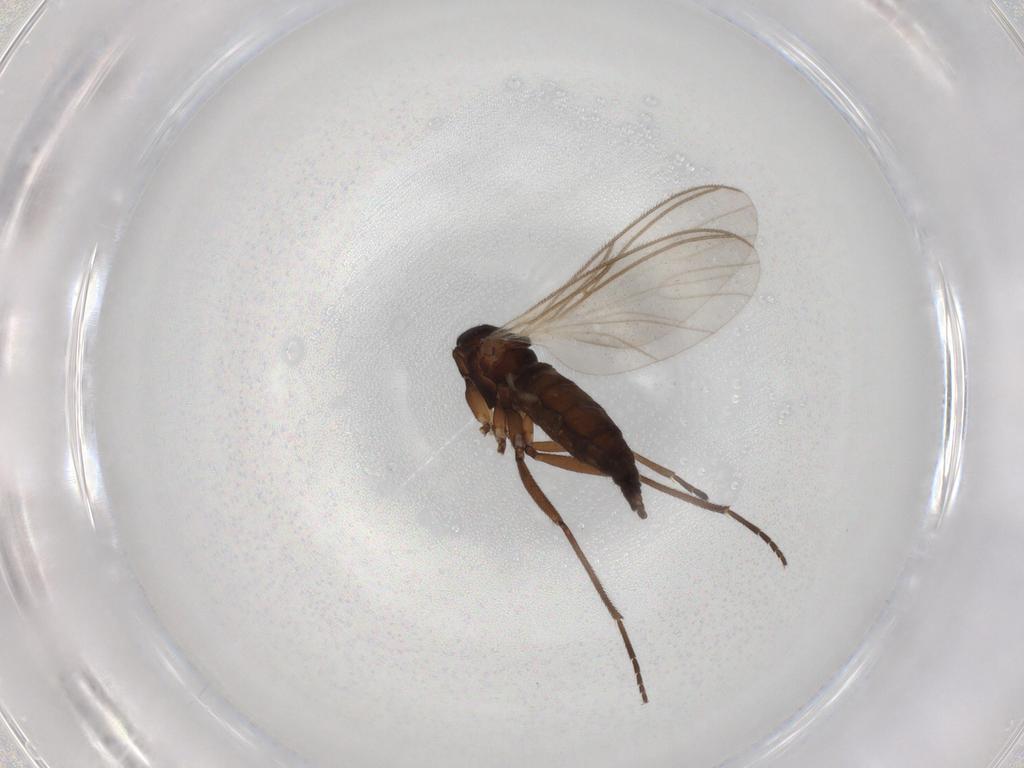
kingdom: Animalia
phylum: Arthropoda
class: Insecta
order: Diptera
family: Sciaridae
